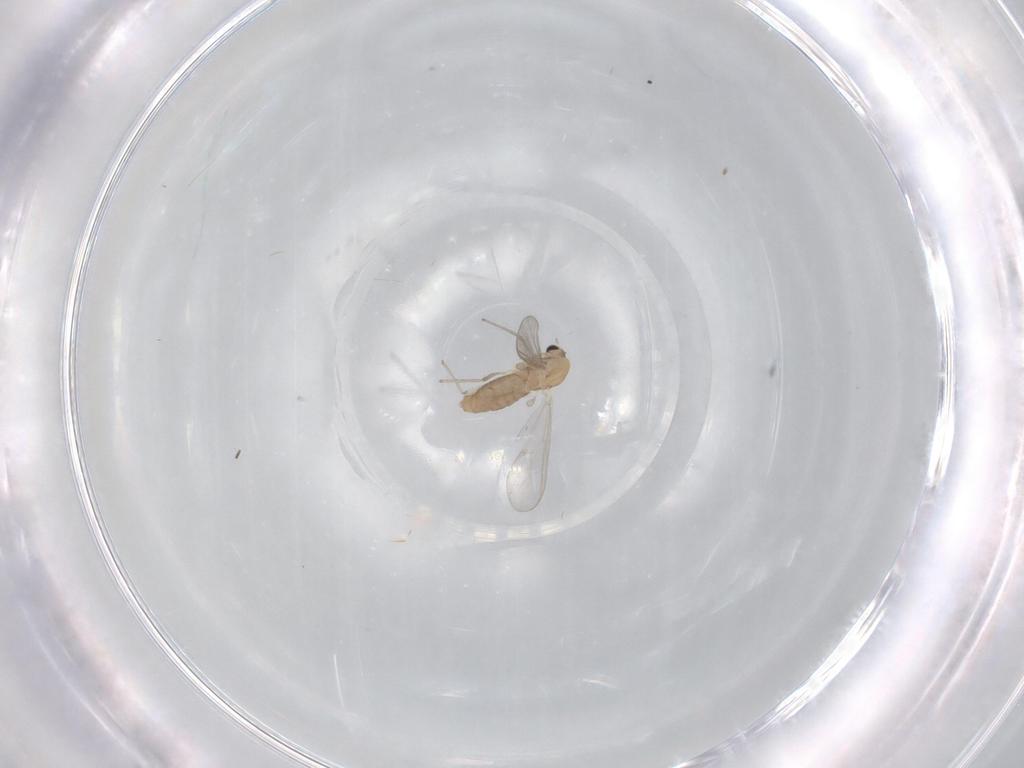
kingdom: Animalia
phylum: Arthropoda
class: Insecta
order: Diptera
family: Chironomidae
